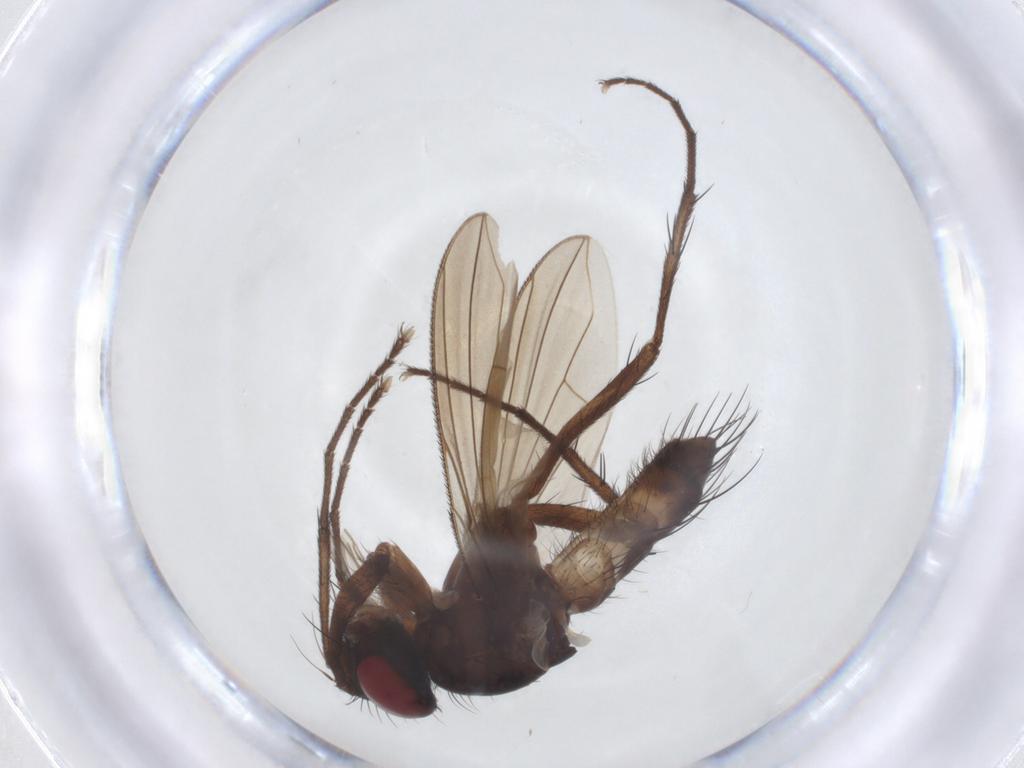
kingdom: Animalia
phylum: Arthropoda
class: Insecta
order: Diptera
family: Tachinidae
